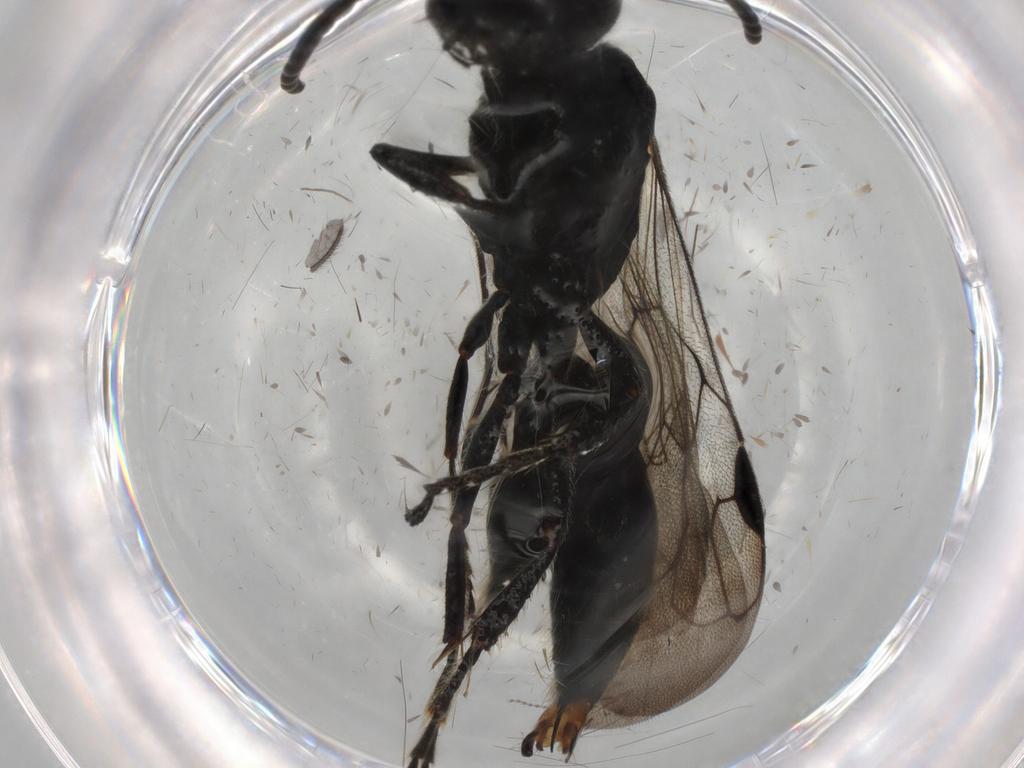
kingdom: Animalia
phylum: Arthropoda
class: Insecta
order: Hymenoptera
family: Tiphiidae
